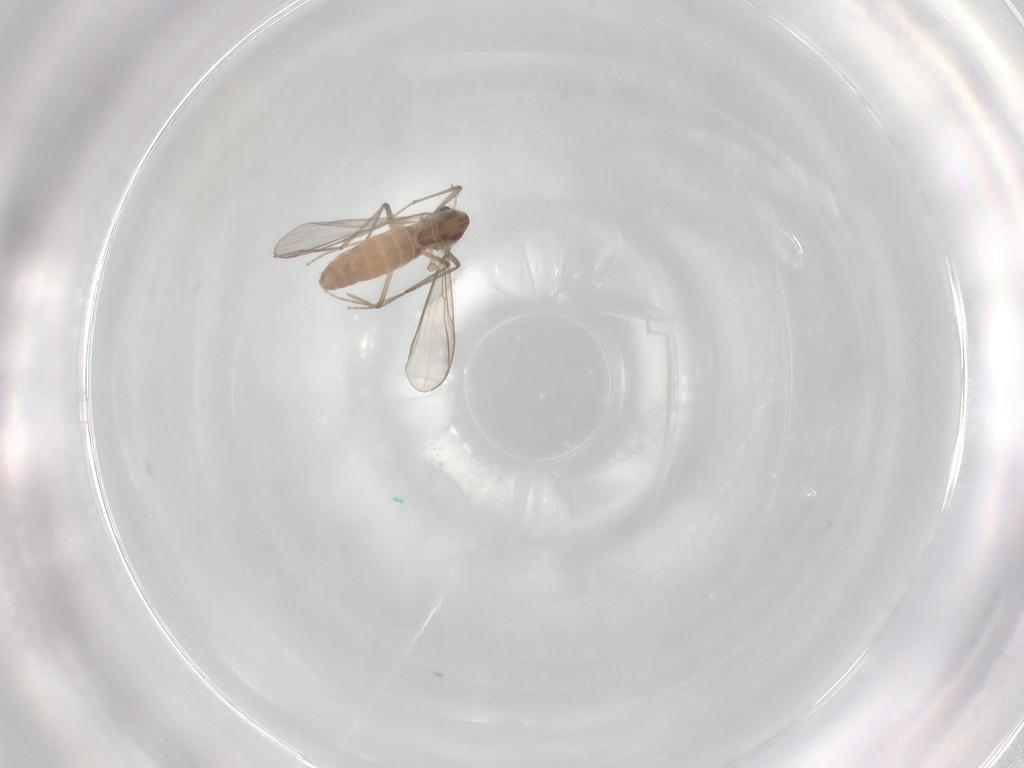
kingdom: Animalia
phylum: Arthropoda
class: Insecta
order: Diptera
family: Chironomidae
